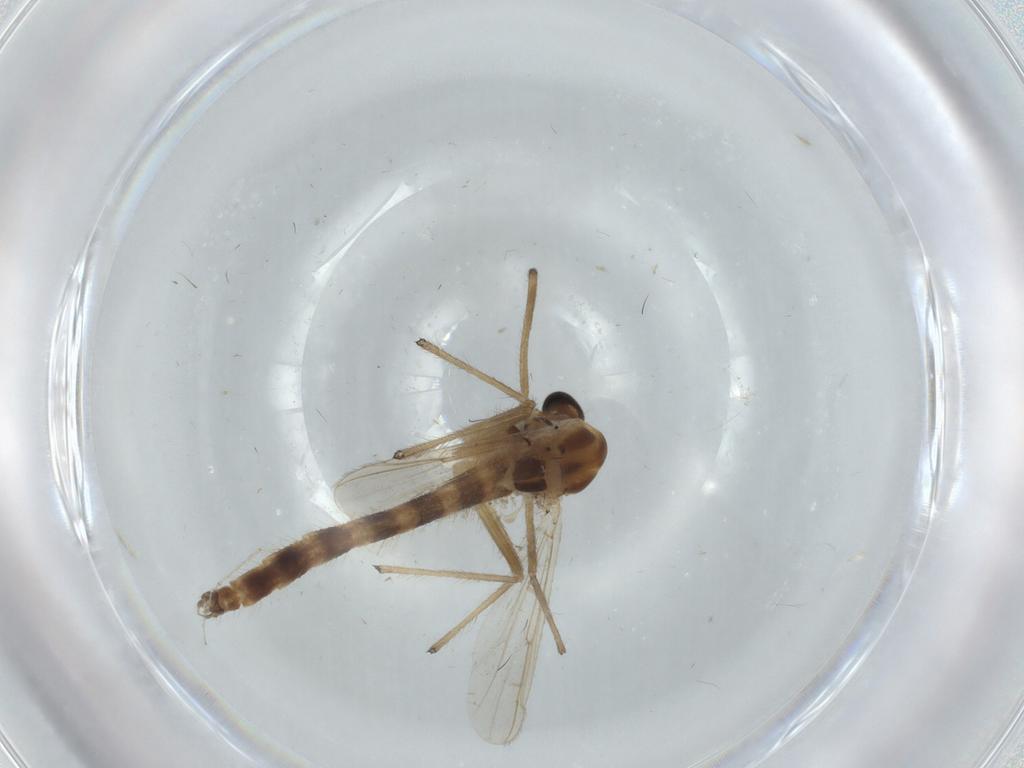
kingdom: Animalia
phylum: Arthropoda
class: Insecta
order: Diptera
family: Chironomidae
